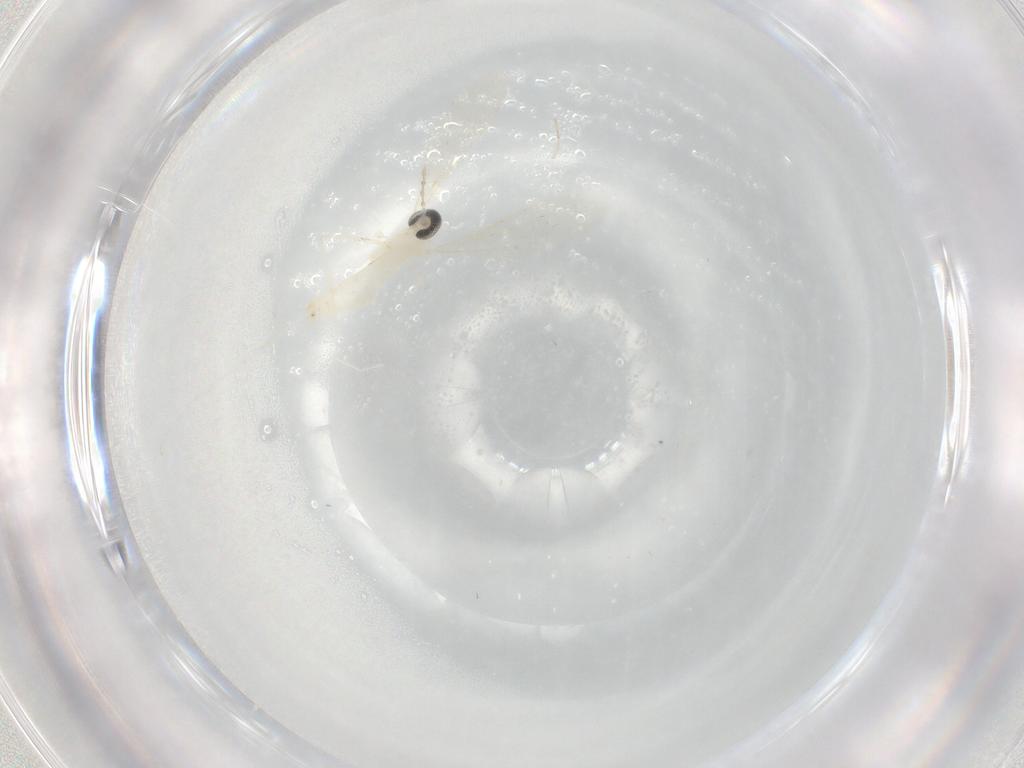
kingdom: Animalia
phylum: Arthropoda
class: Insecta
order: Diptera
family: Cecidomyiidae
